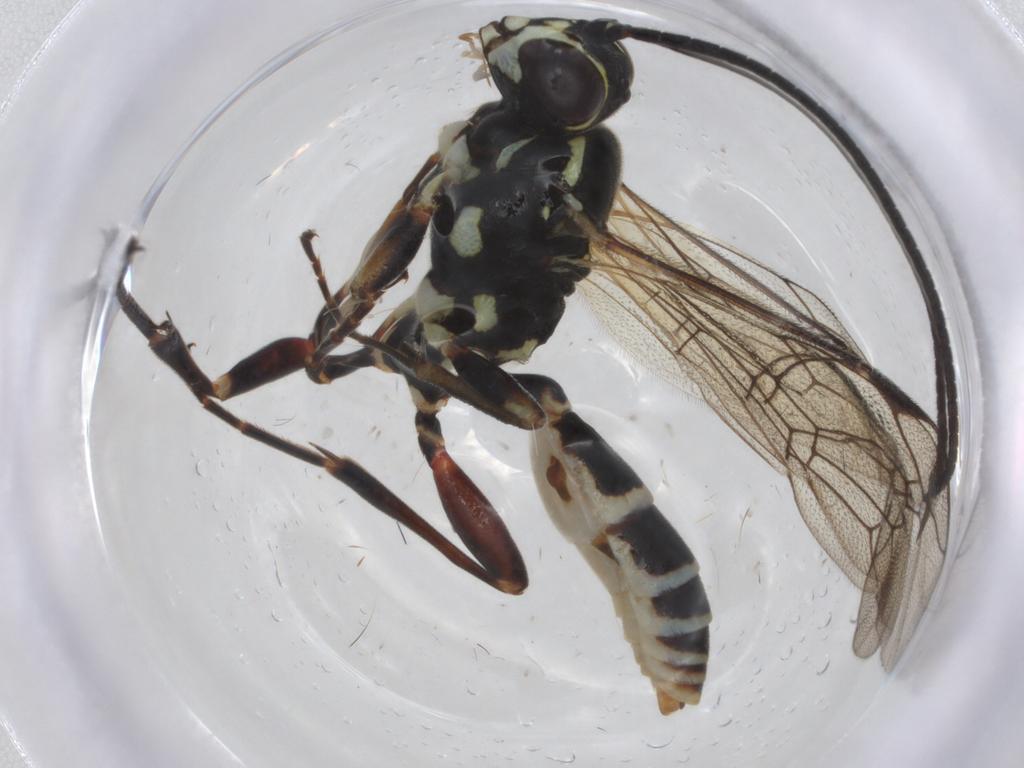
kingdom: Animalia
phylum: Arthropoda
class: Insecta
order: Hymenoptera
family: Ichneumonidae
